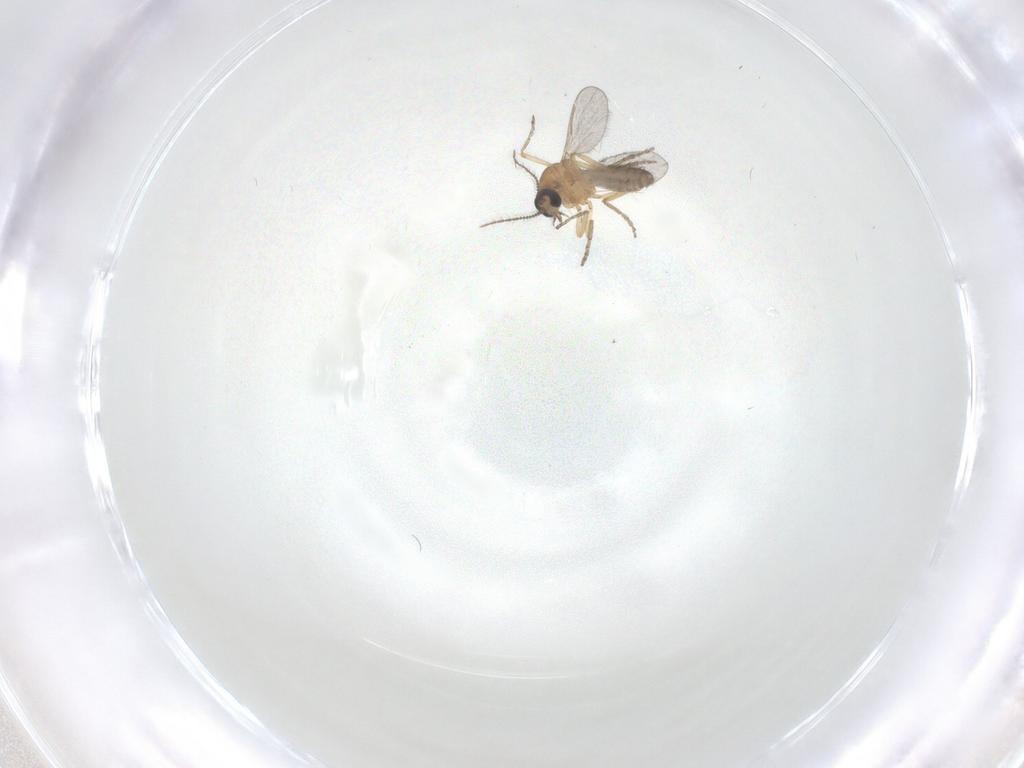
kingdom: Animalia
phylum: Arthropoda
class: Insecta
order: Diptera
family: Phoridae
